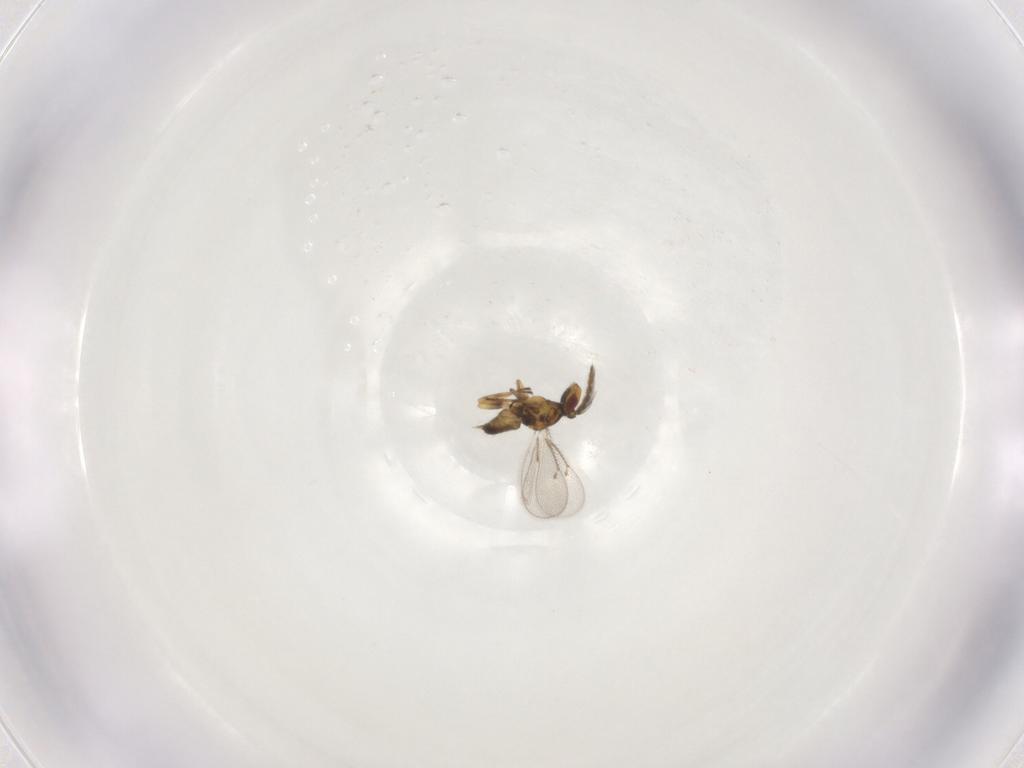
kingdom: Animalia
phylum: Arthropoda
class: Insecta
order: Hymenoptera
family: Eulophidae
